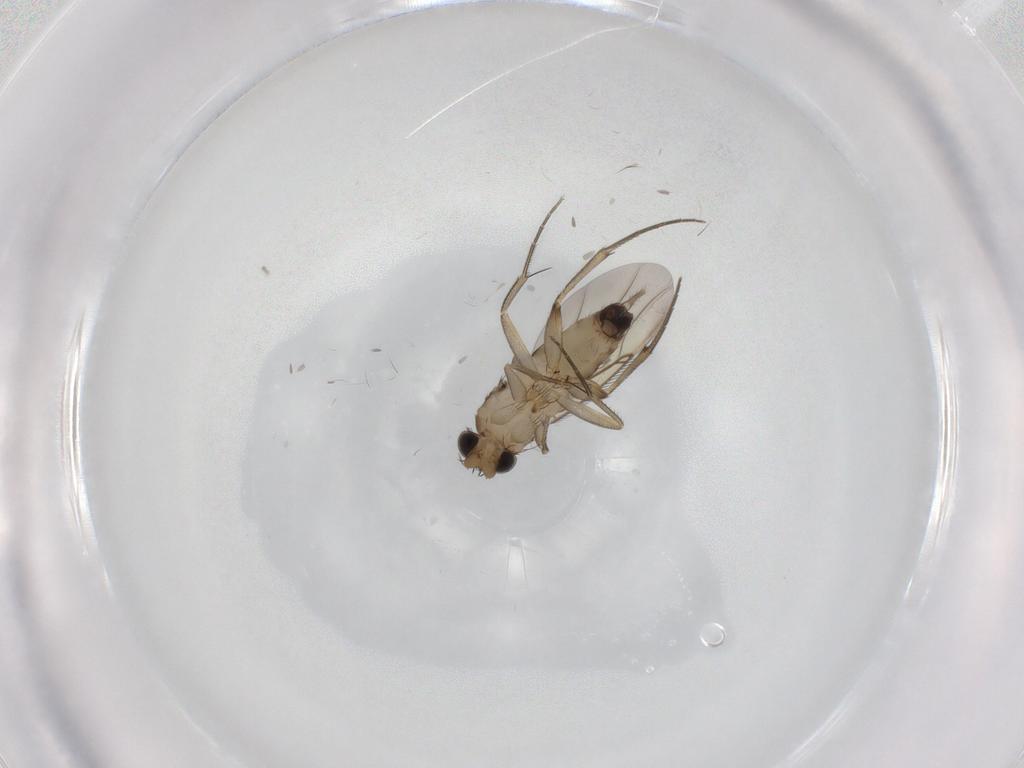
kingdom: Animalia
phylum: Arthropoda
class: Insecta
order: Diptera
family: Phoridae
